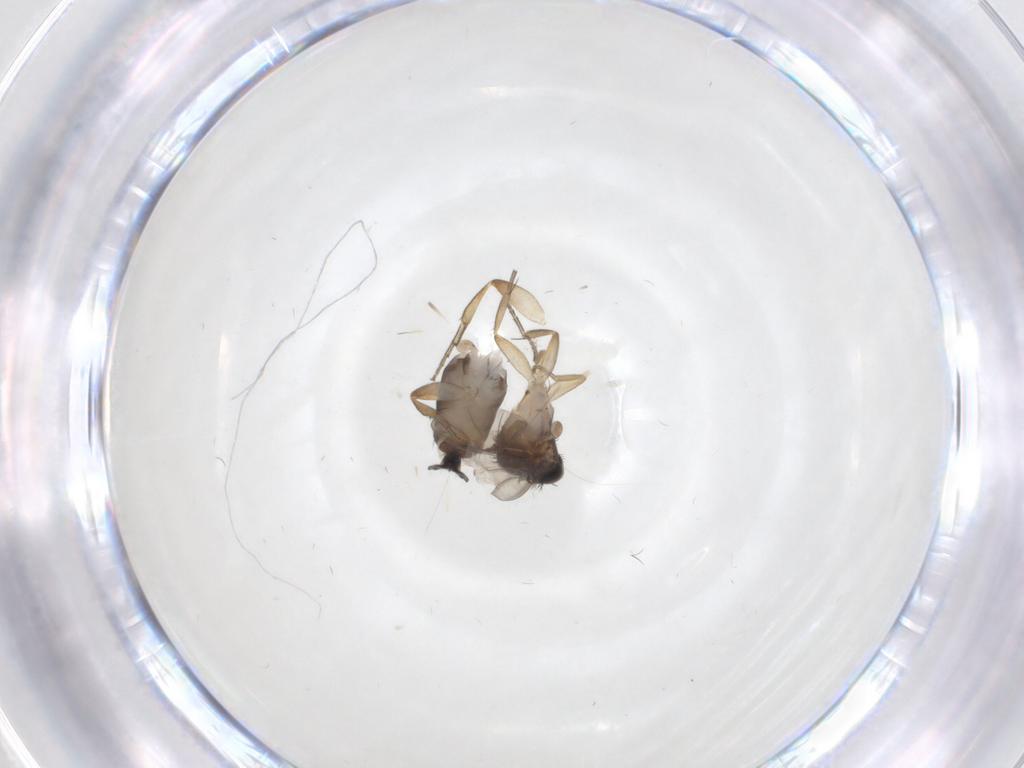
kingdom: Animalia
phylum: Arthropoda
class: Insecta
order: Diptera
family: Phoridae
